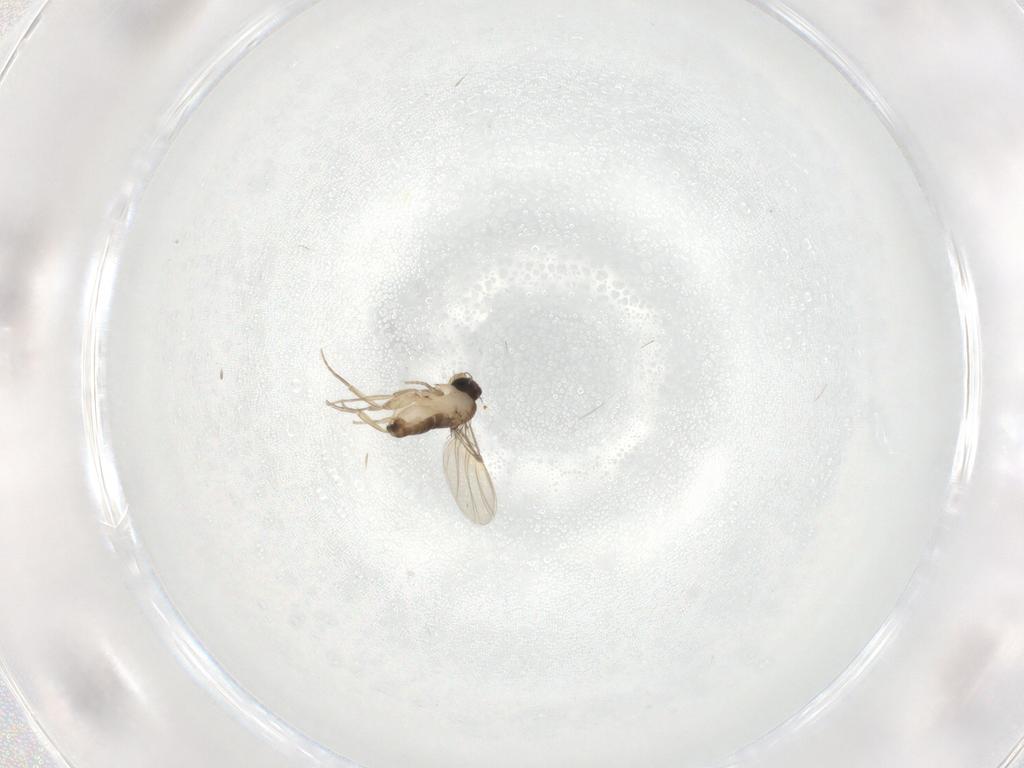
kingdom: Animalia
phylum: Arthropoda
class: Insecta
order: Diptera
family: Phoridae
